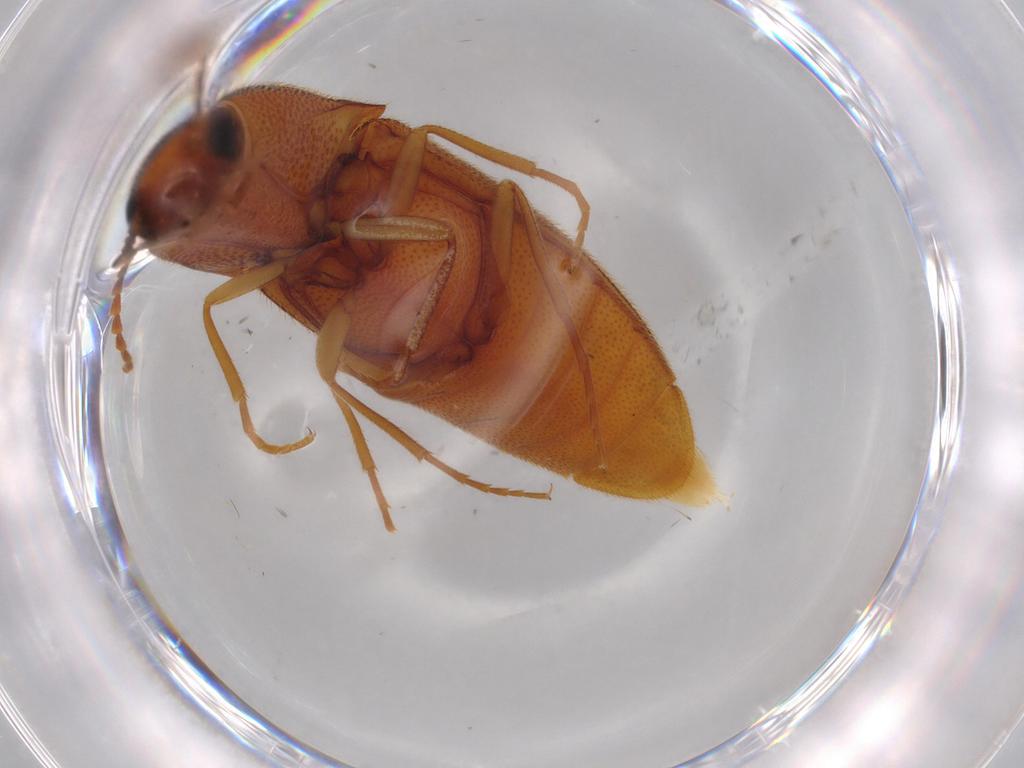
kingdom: Animalia
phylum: Arthropoda
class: Insecta
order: Coleoptera
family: Elateridae
